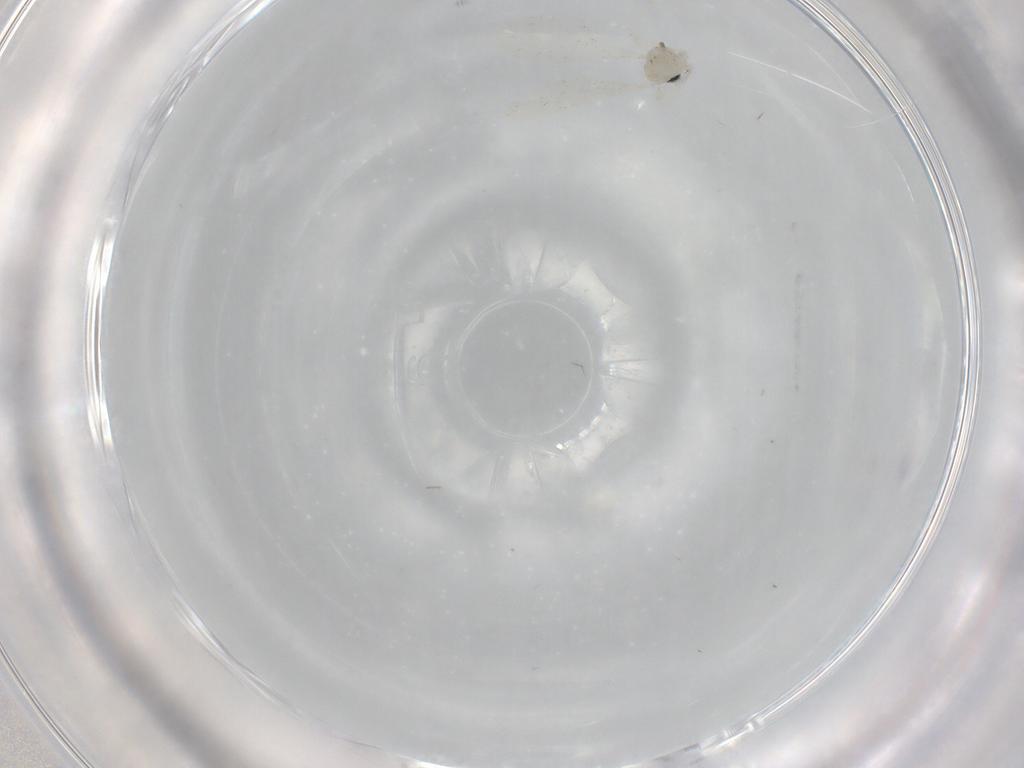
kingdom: Animalia
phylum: Arthropoda
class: Insecta
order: Diptera
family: Cecidomyiidae
